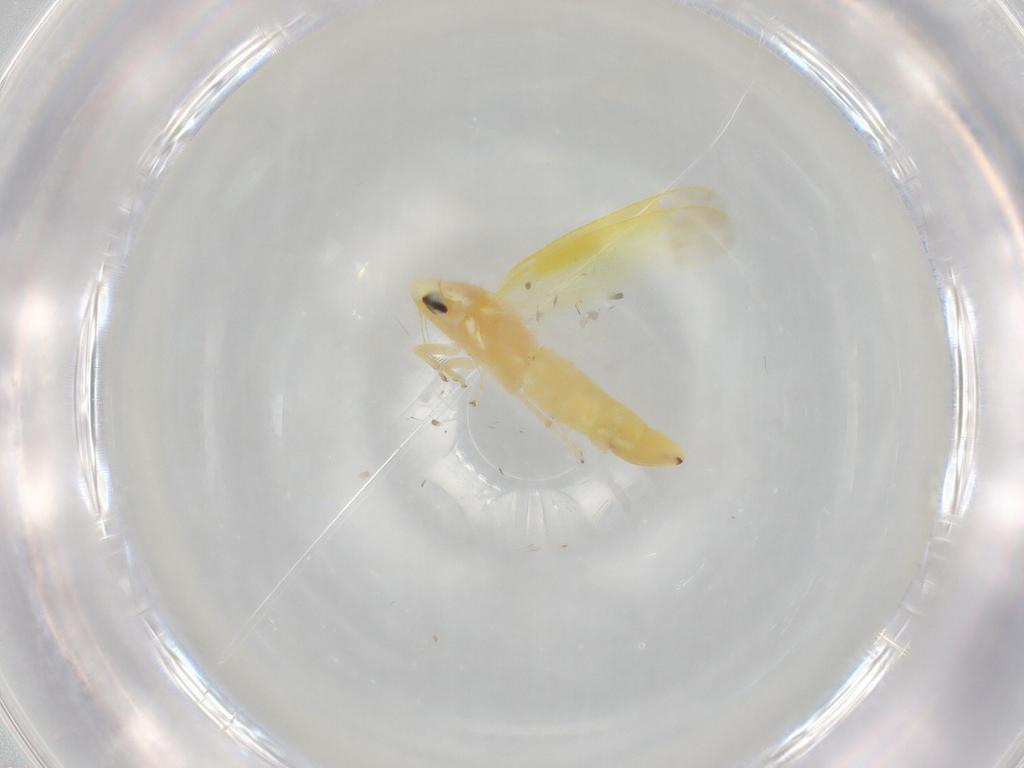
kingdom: Animalia
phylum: Arthropoda
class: Insecta
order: Hemiptera
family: Cicadellidae
